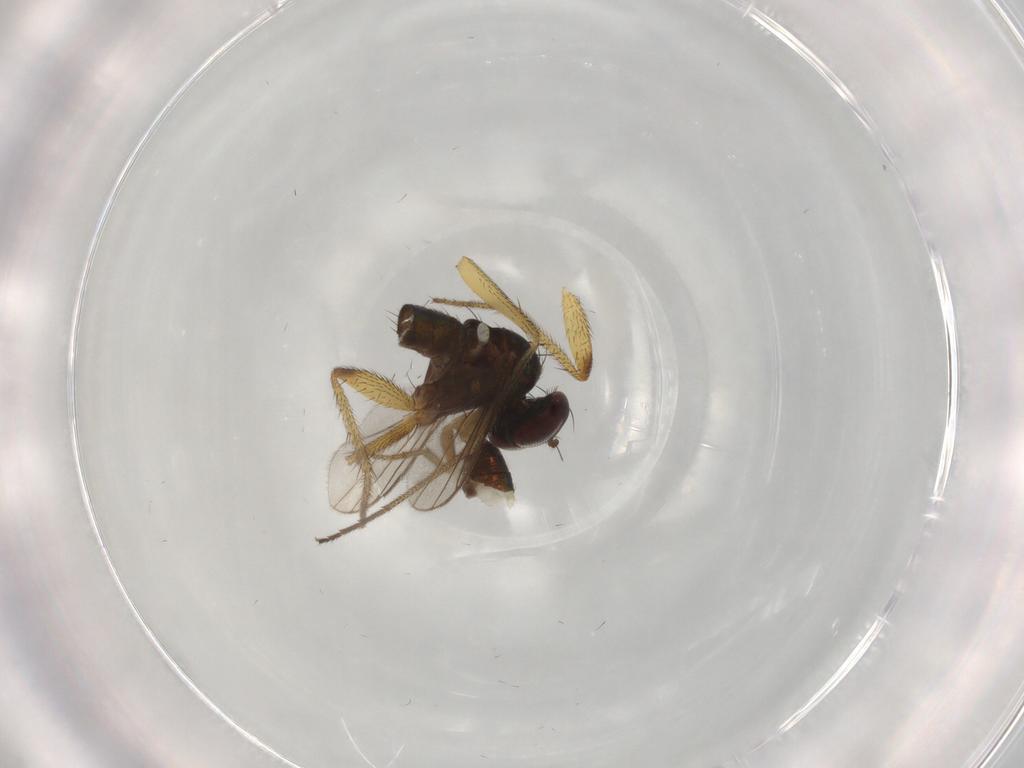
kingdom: Animalia
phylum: Arthropoda
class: Insecta
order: Diptera
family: Dolichopodidae
